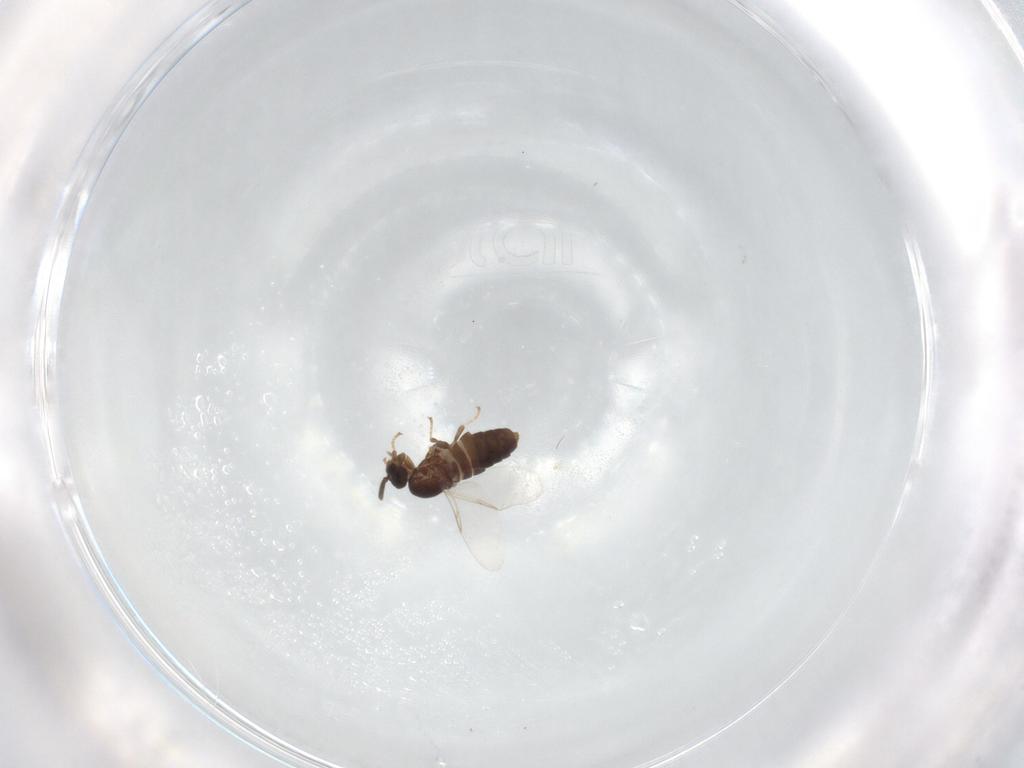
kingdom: Animalia
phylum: Arthropoda
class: Insecta
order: Diptera
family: Scatopsidae
